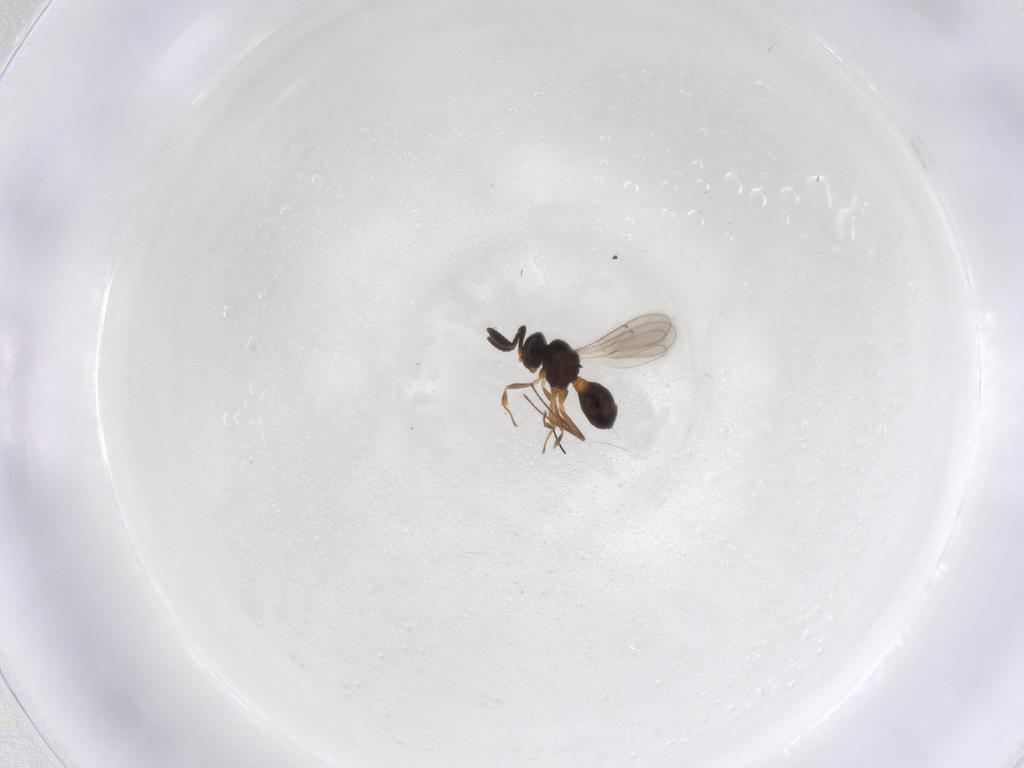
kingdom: Animalia
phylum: Arthropoda
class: Insecta
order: Hymenoptera
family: Scelionidae
